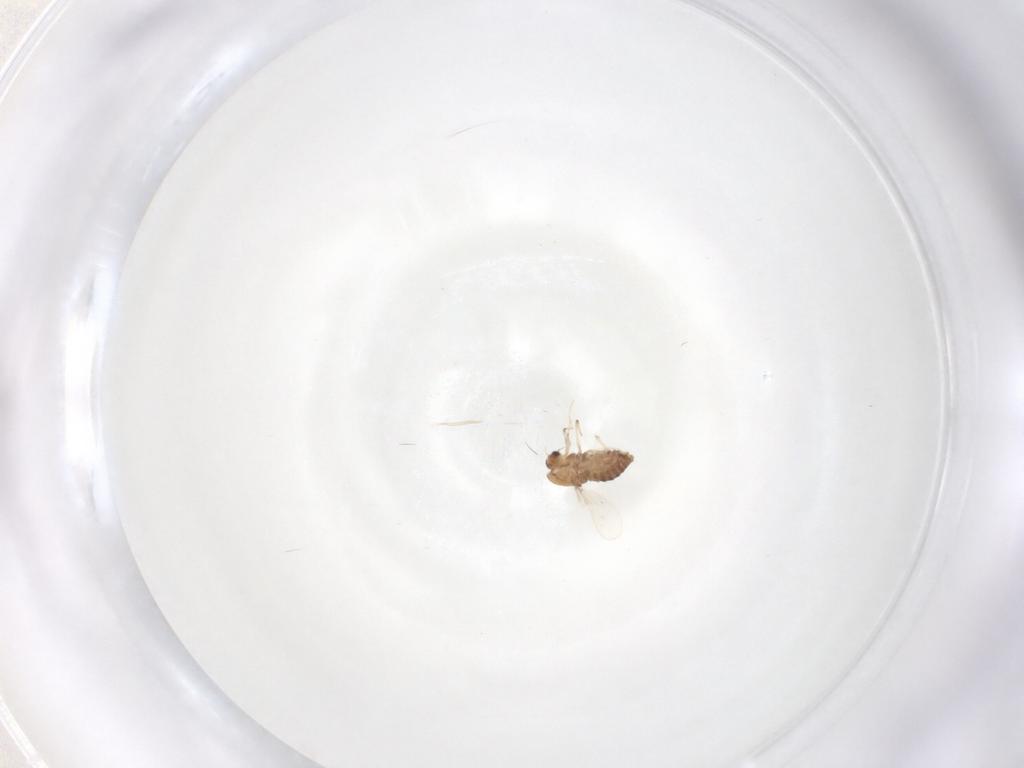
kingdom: Animalia
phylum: Arthropoda
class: Insecta
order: Diptera
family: Chironomidae
